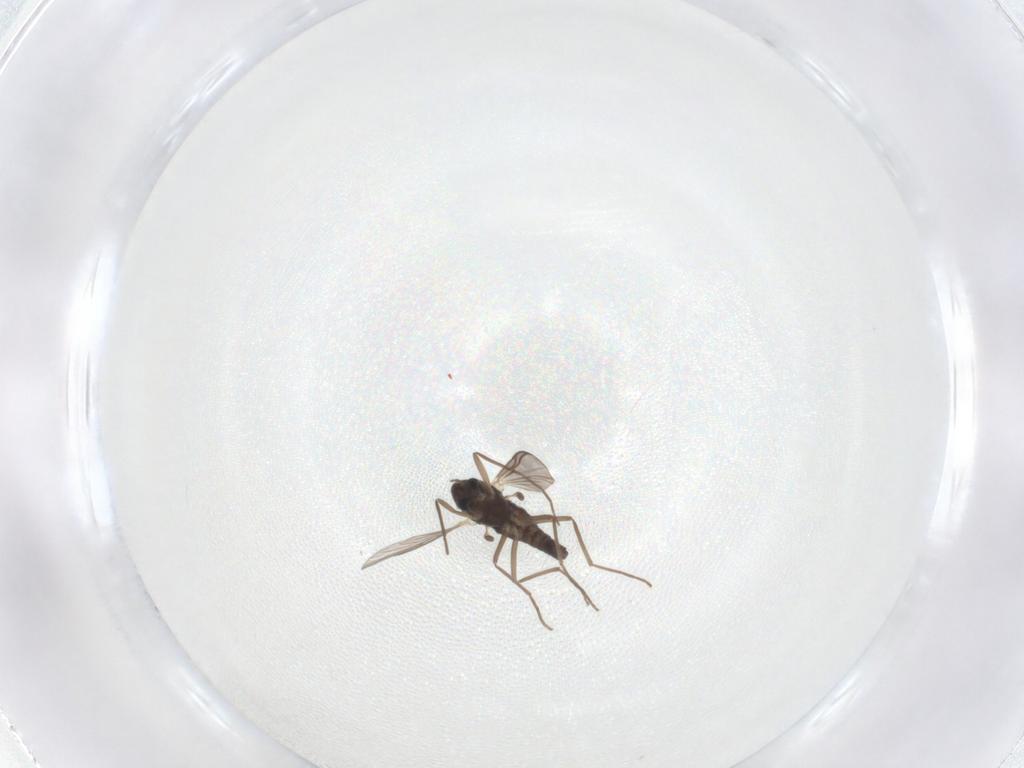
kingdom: Animalia
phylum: Arthropoda
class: Insecta
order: Diptera
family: Chironomidae
